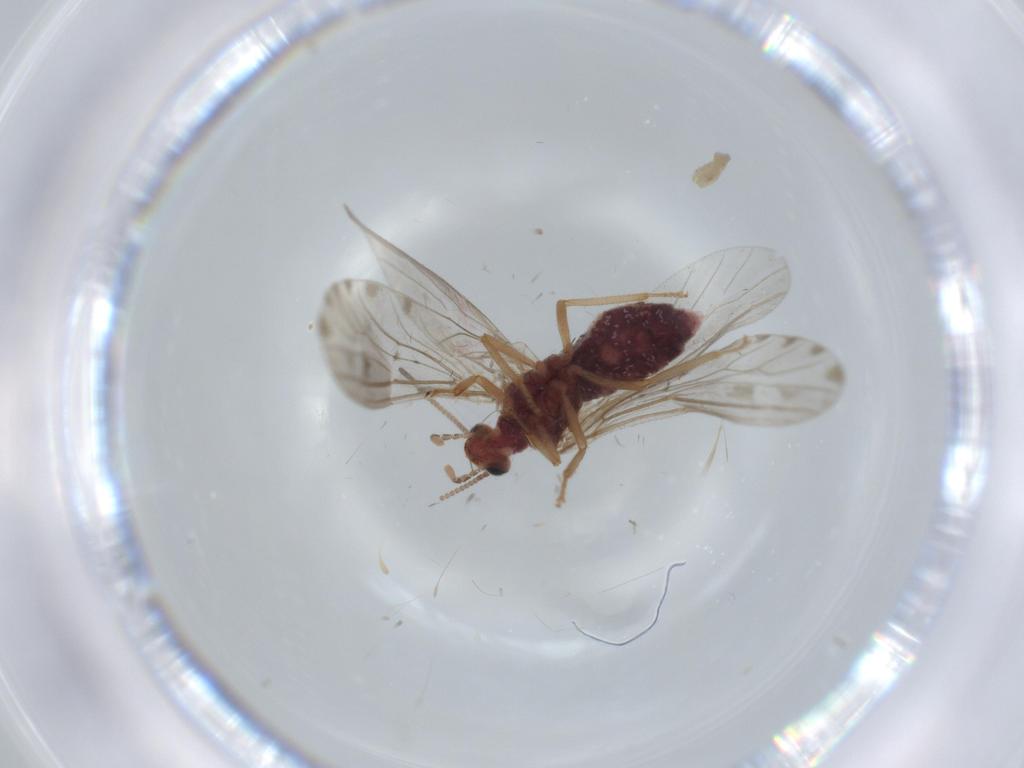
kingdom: Animalia
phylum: Arthropoda
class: Insecta
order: Neuroptera
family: Coniopterygidae
